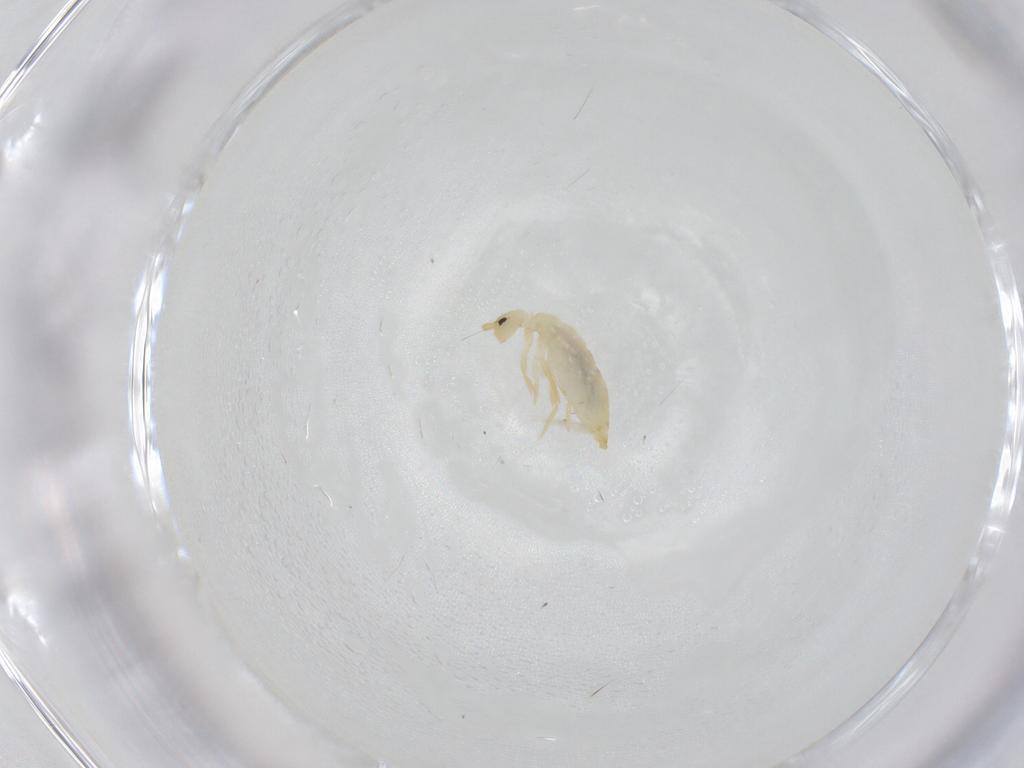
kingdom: Animalia
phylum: Arthropoda
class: Collembola
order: Entomobryomorpha
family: Entomobryidae
